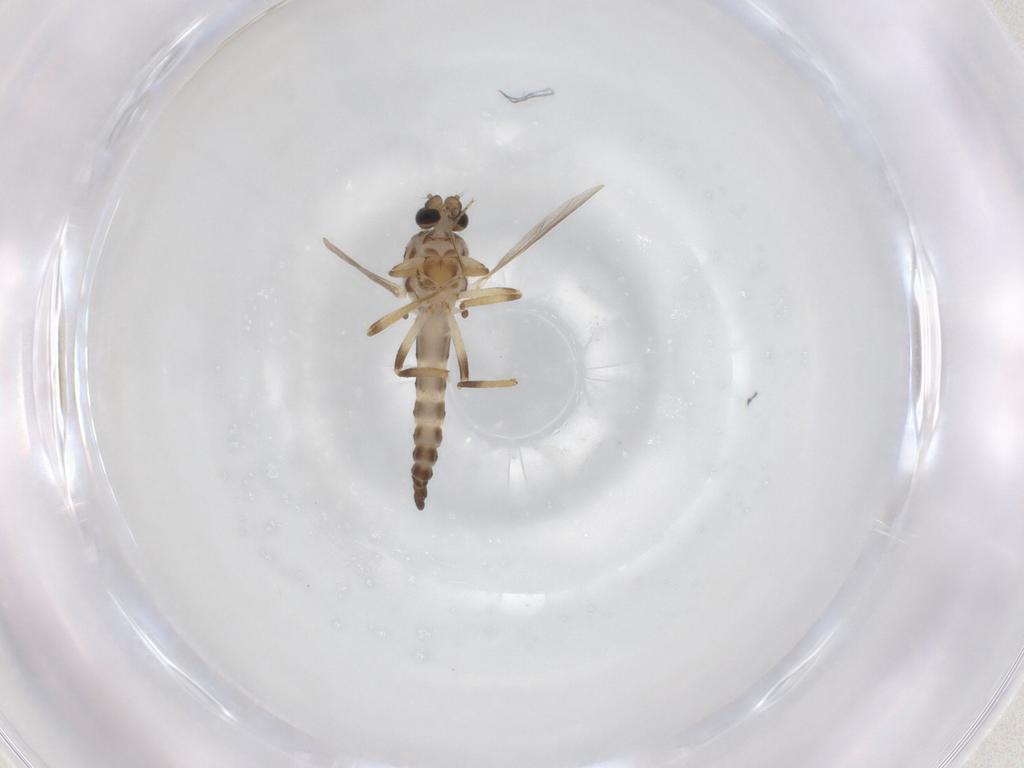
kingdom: Animalia
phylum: Arthropoda
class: Insecta
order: Diptera
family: Ceratopogonidae
